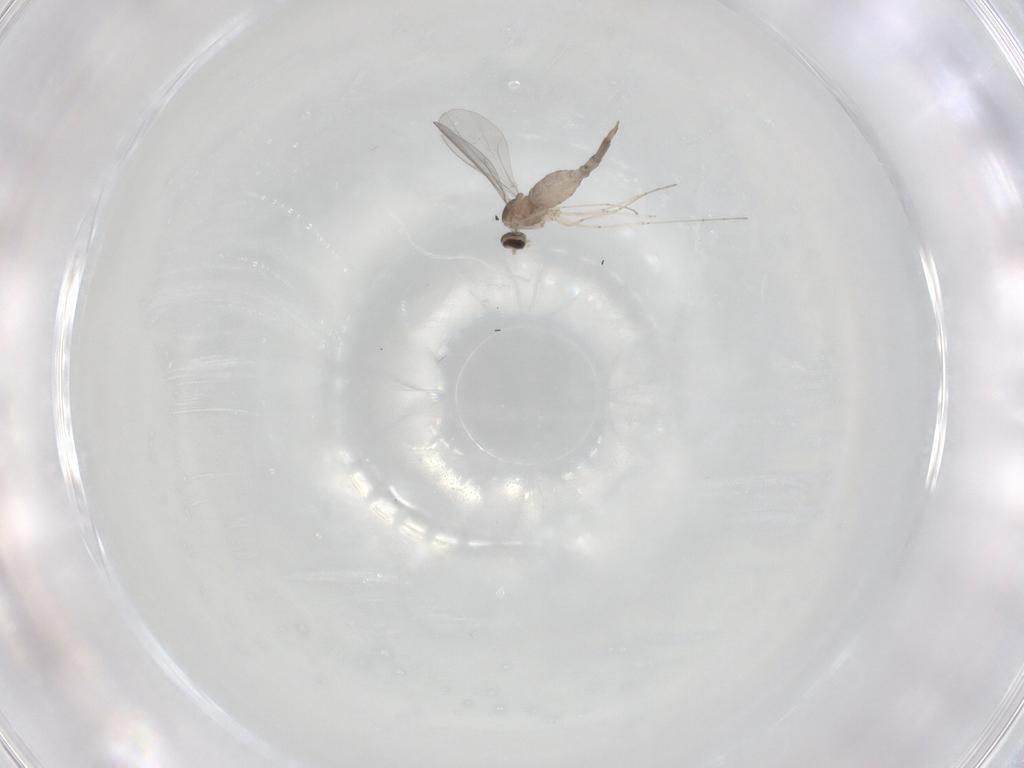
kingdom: Animalia
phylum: Arthropoda
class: Insecta
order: Diptera
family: Cecidomyiidae
